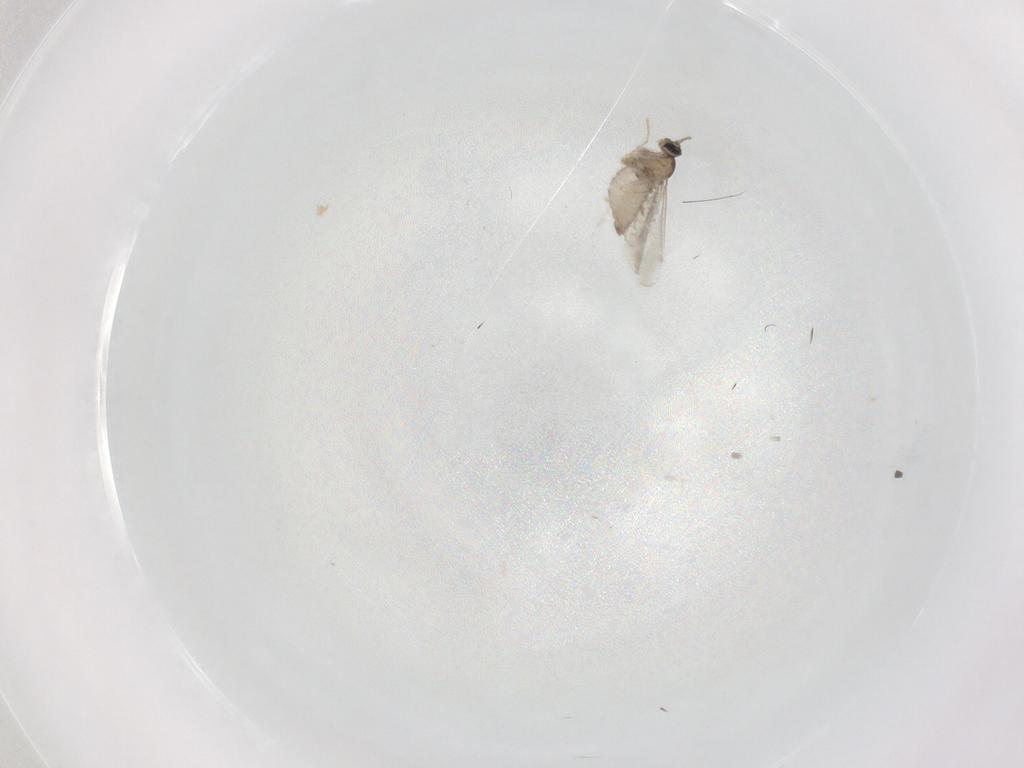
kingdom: Animalia
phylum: Arthropoda
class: Insecta
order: Diptera
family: Cecidomyiidae
